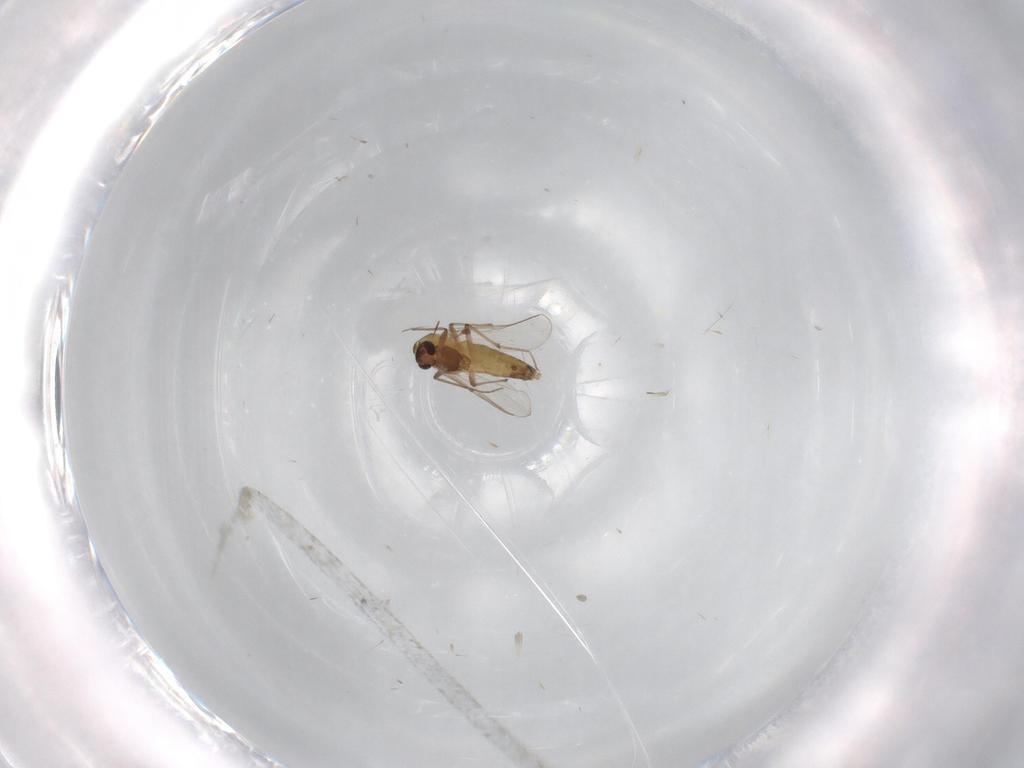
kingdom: Animalia
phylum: Arthropoda
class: Insecta
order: Diptera
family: Chironomidae
